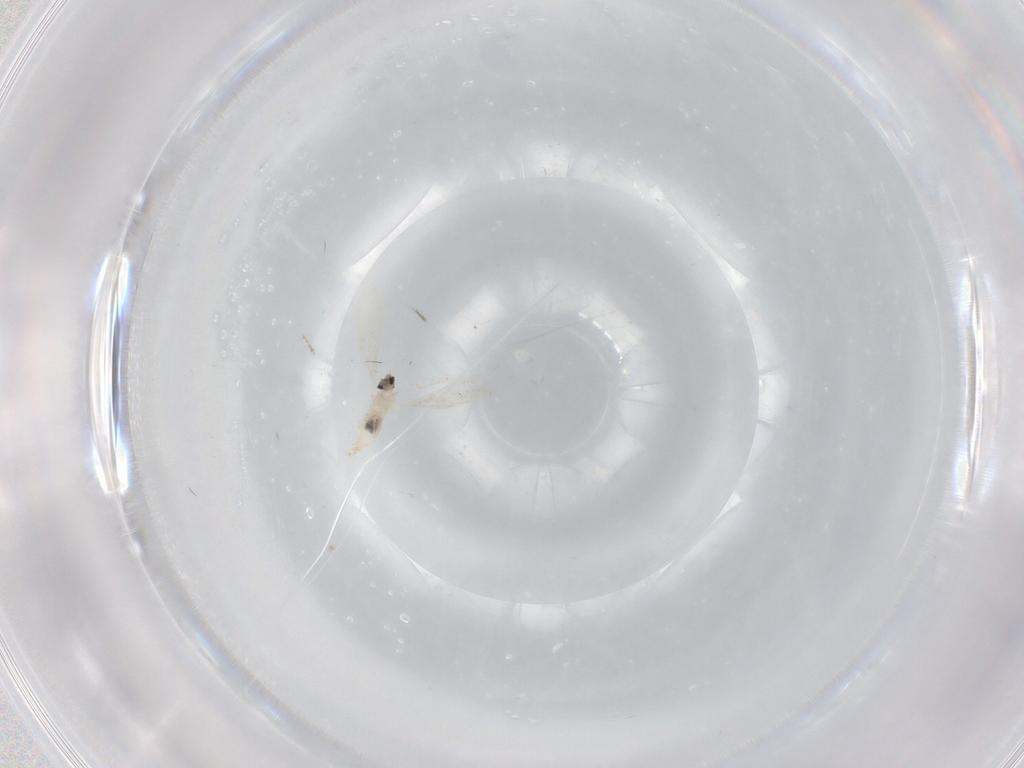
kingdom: Animalia
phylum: Arthropoda
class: Insecta
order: Diptera
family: Cecidomyiidae
